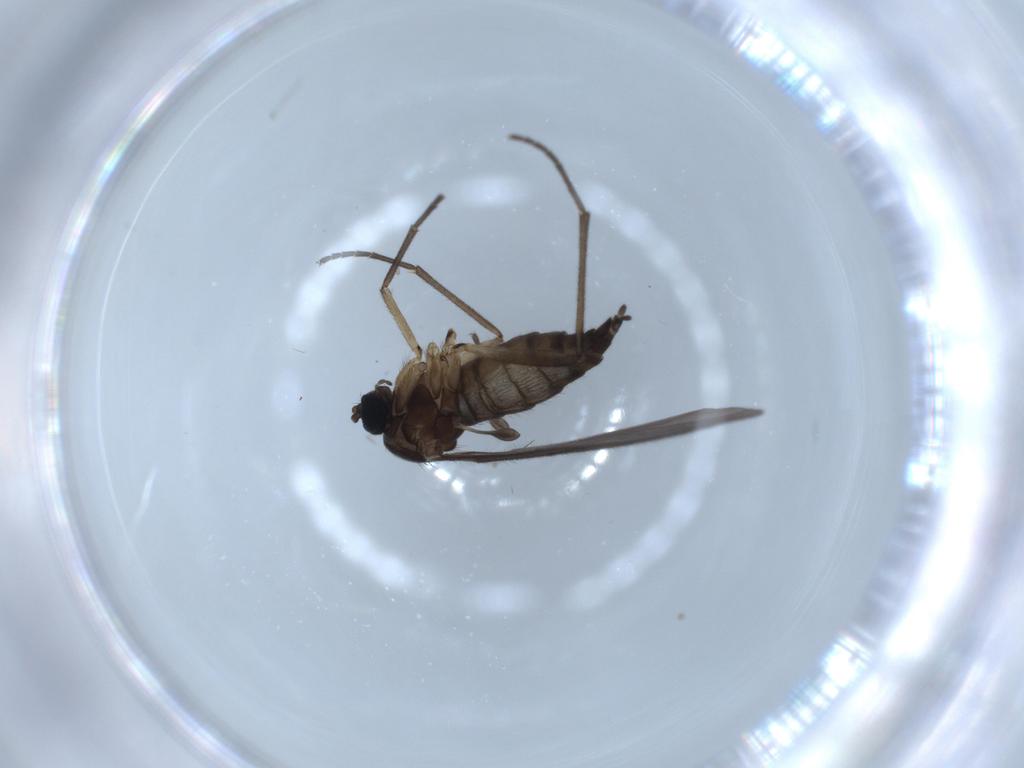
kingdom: Animalia
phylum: Arthropoda
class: Insecta
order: Diptera
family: Sciaridae
